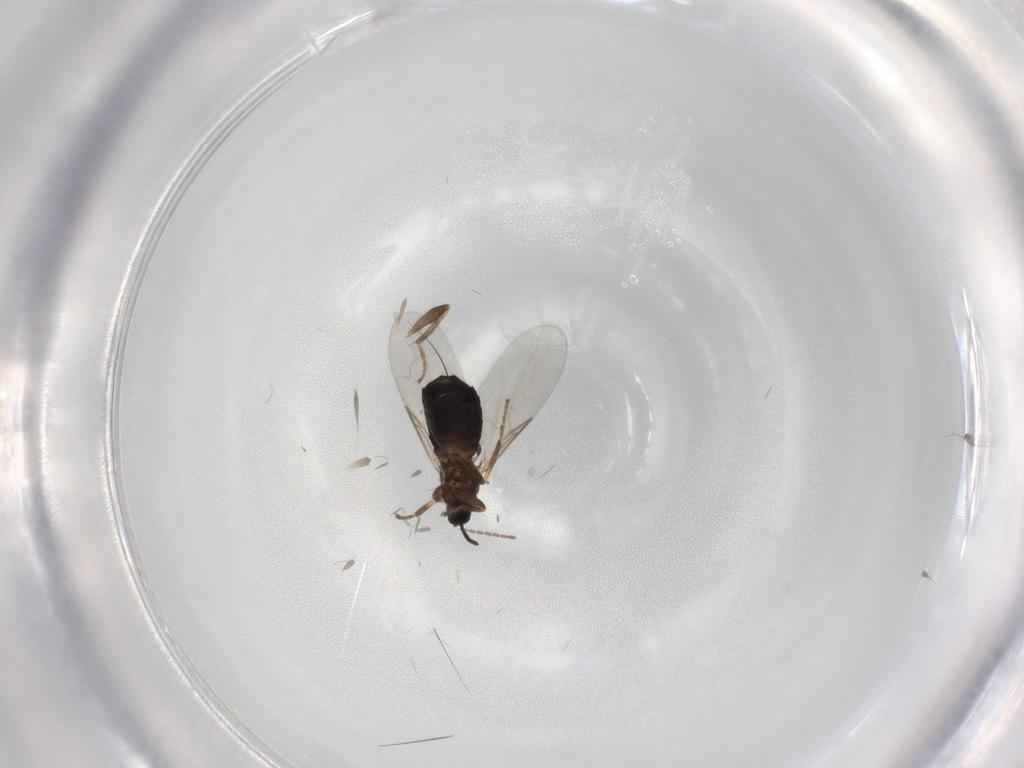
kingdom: Animalia
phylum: Arthropoda
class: Insecta
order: Diptera
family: Scatopsidae
